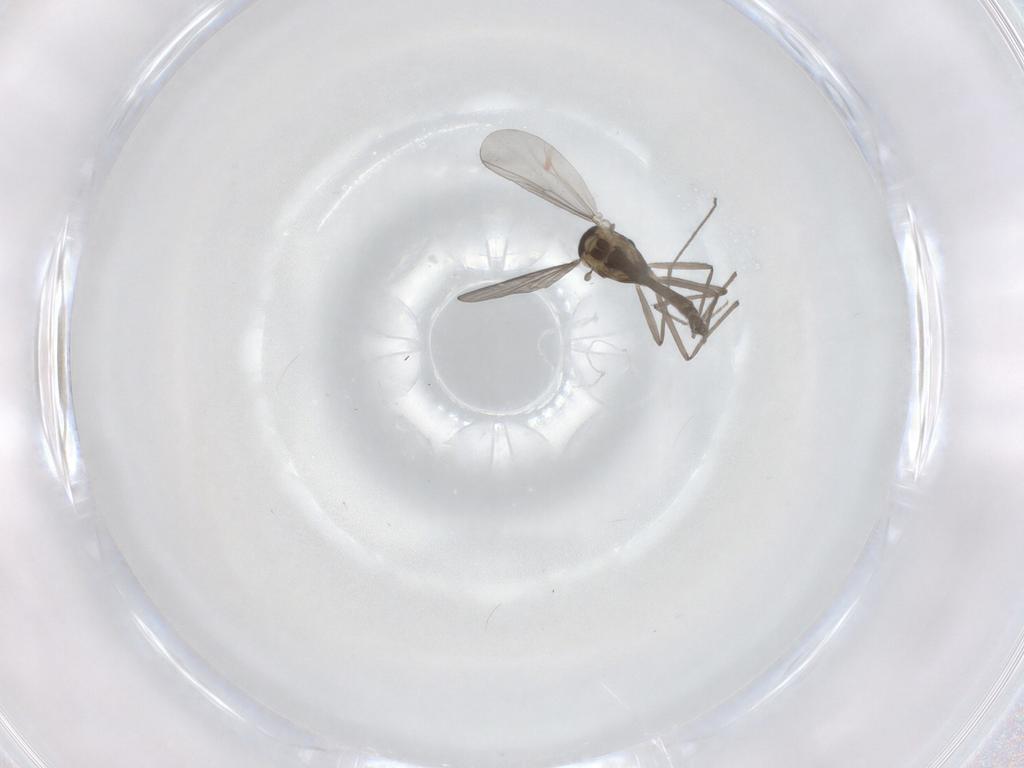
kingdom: Animalia
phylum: Arthropoda
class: Insecta
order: Diptera
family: Chironomidae
